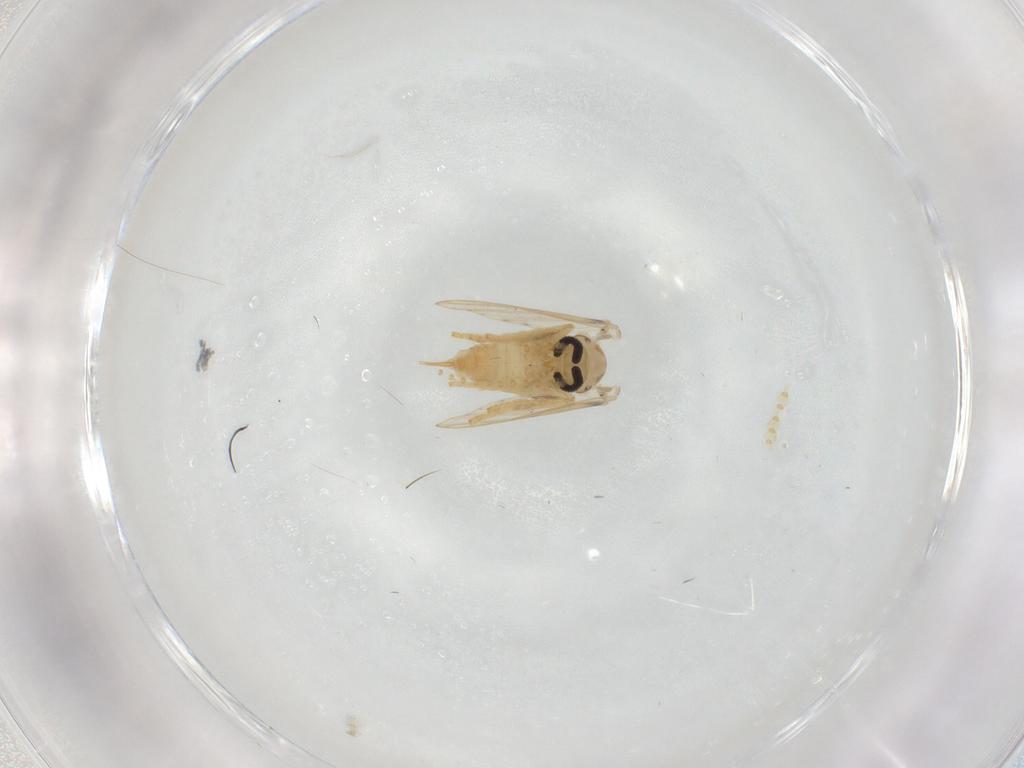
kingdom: Animalia
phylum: Arthropoda
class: Insecta
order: Diptera
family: Psychodidae
